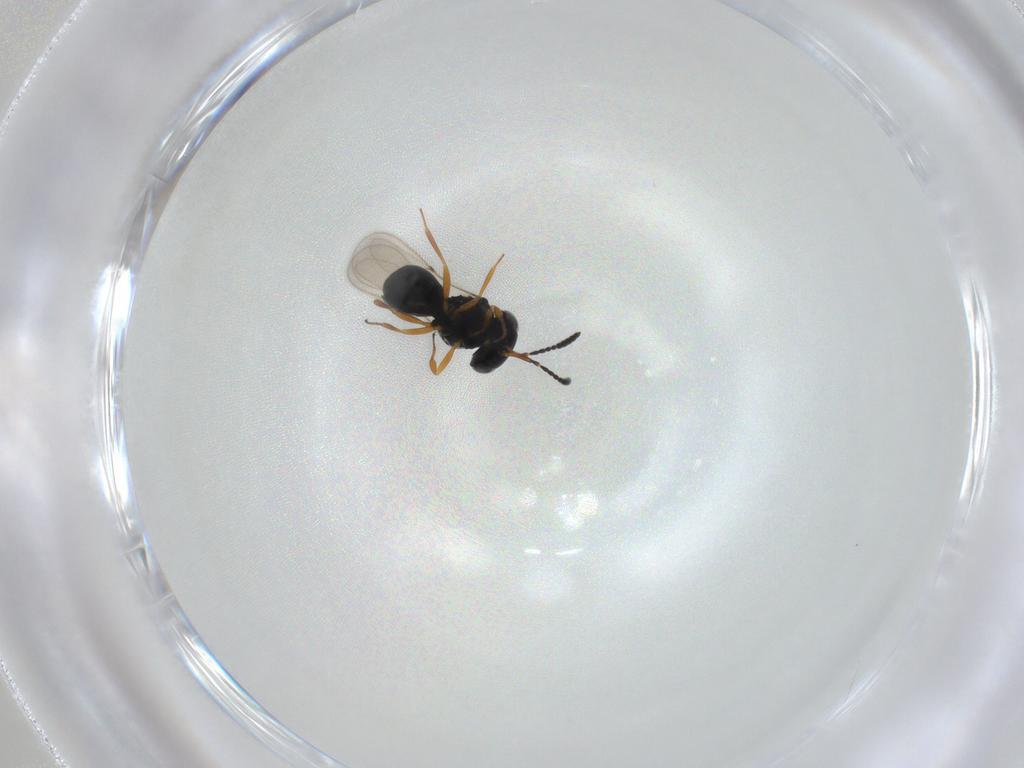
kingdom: Animalia
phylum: Arthropoda
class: Insecta
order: Hymenoptera
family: Scelionidae
